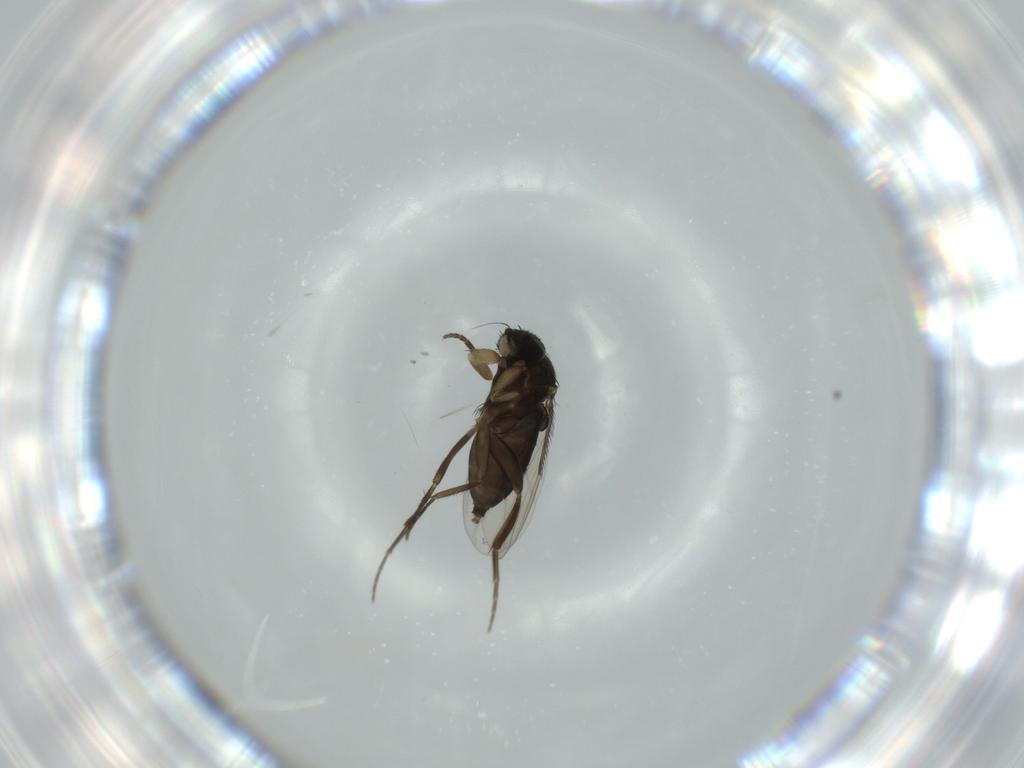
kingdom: Animalia
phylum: Arthropoda
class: Insecta
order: Diptera
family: Phoridae
